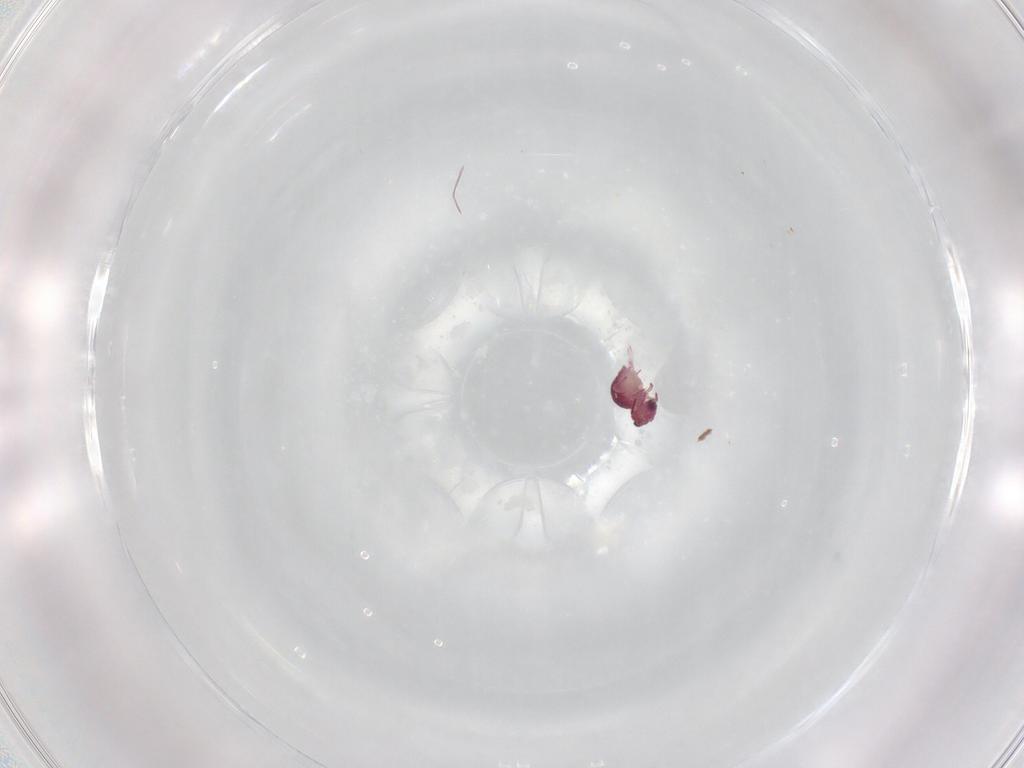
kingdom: Animalia
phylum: Arthropoda
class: Collembola
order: Symphypleona
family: Sminthurididae
